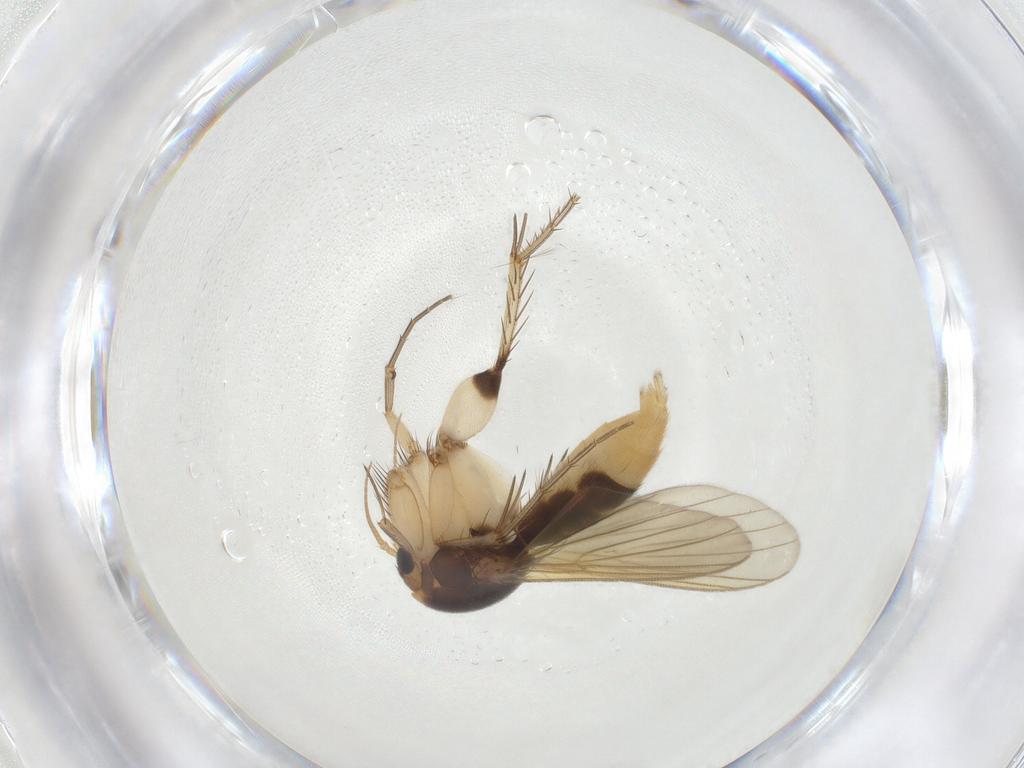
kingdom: Animalia
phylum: Arthropoda
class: Insecta
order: Diptera
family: Mycetophilidae
